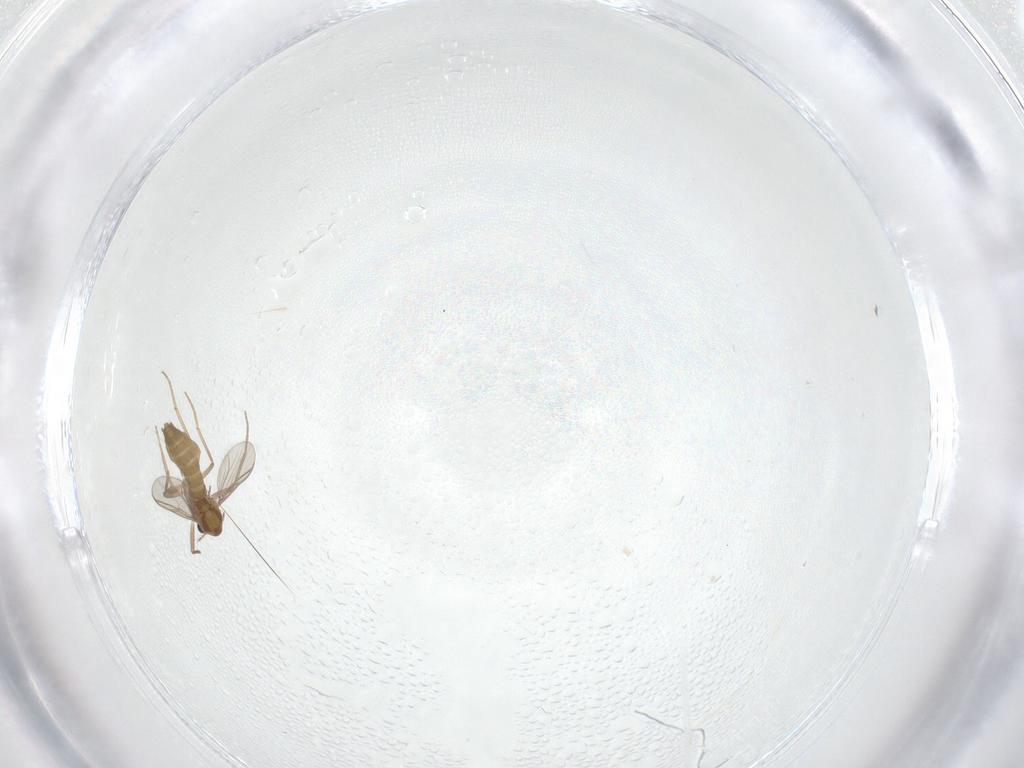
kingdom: Animalia
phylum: Arthropoda
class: Insecta
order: Diptera
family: Chironomidae
